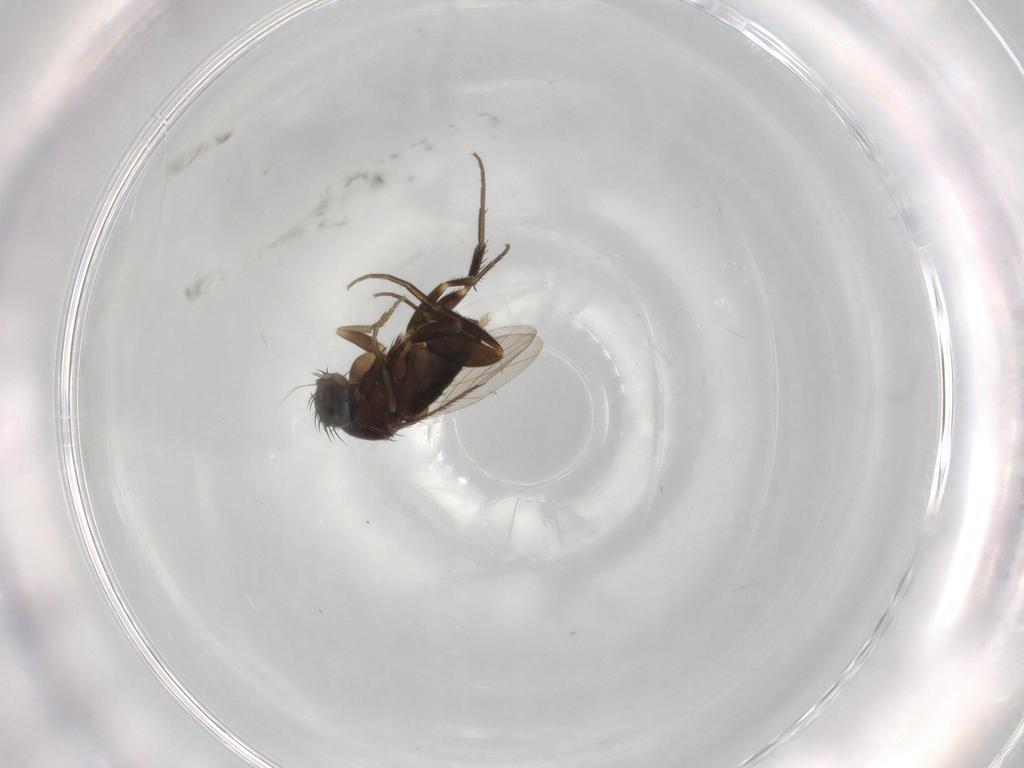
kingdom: Animalia
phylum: Arthropoda
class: Insecta
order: Diptera
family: Phoridae
